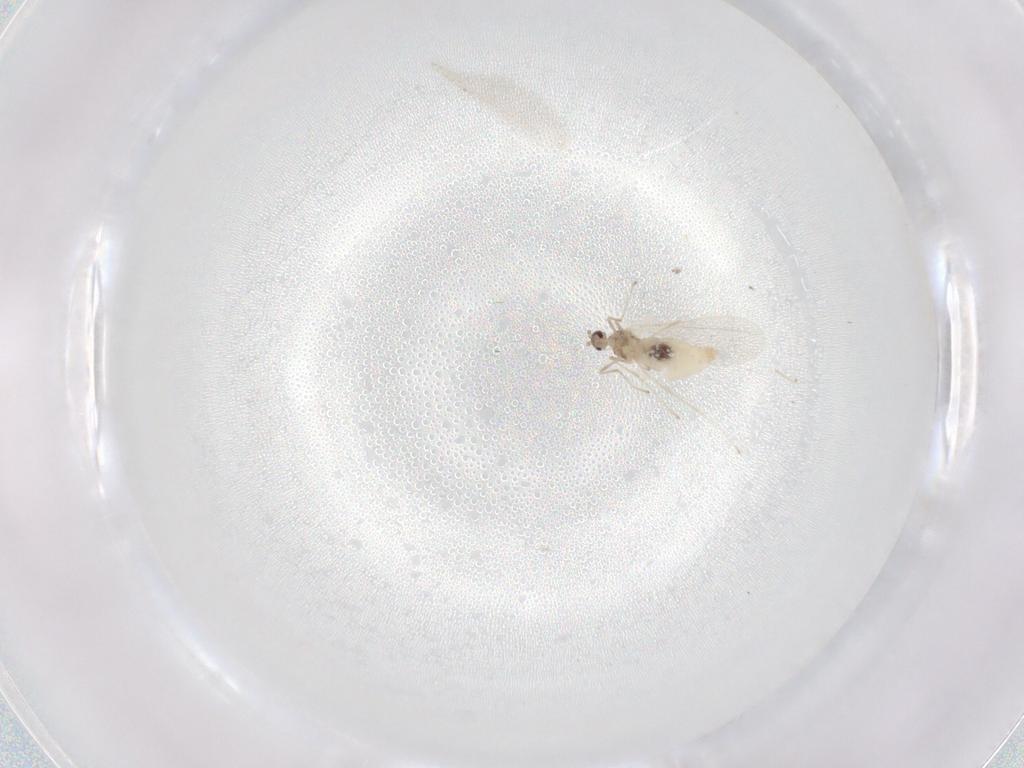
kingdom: Animalia
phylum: Arthropoda
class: Insecta
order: Diptera
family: Cecidomyiidae
